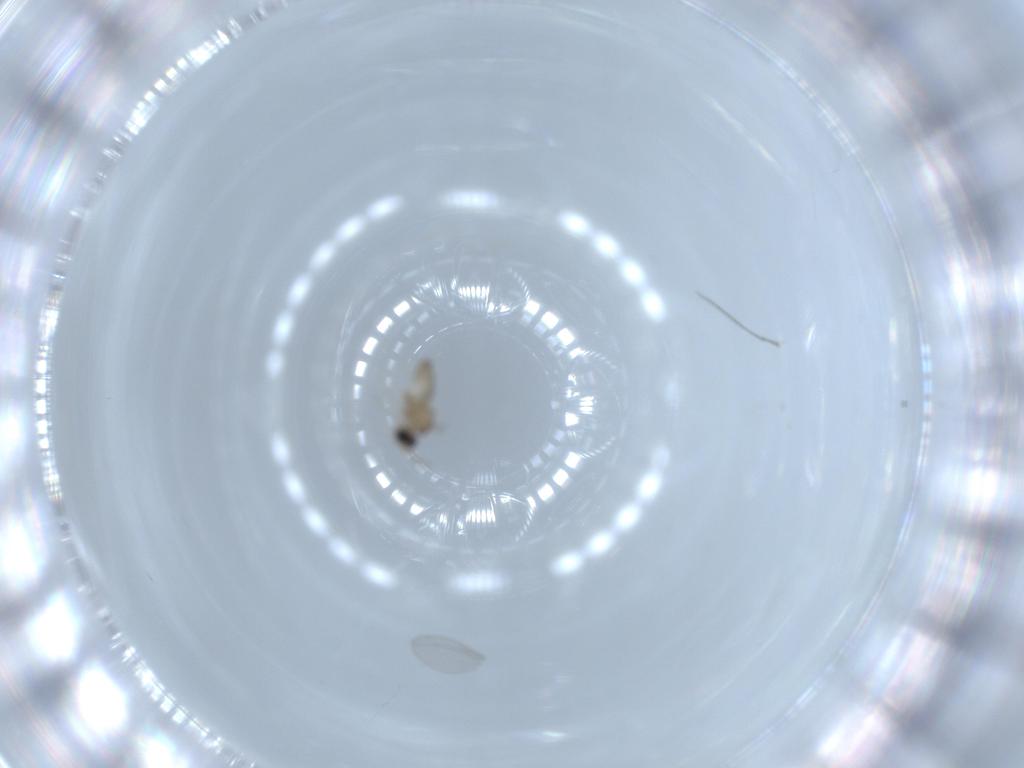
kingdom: Animalia
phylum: Arthropoda
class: Insecta
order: Diptera
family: Cecidomyiidae
